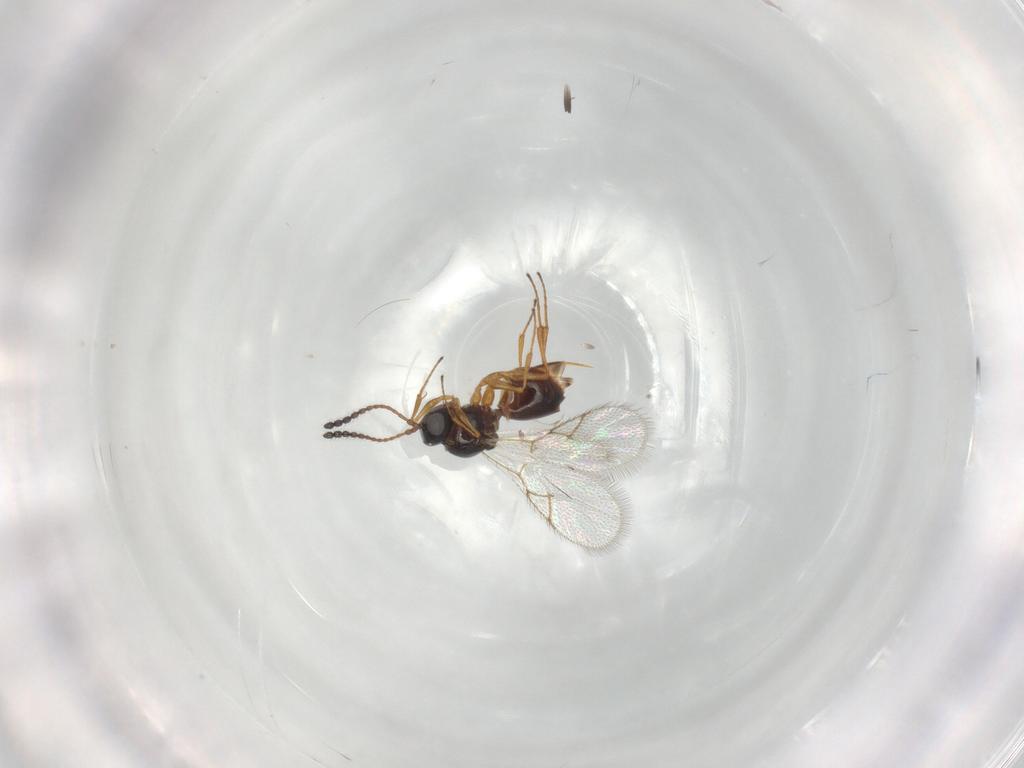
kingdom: Animalia
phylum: Arthropoda
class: Insecta
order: Hymenoptera
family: Figitidae
